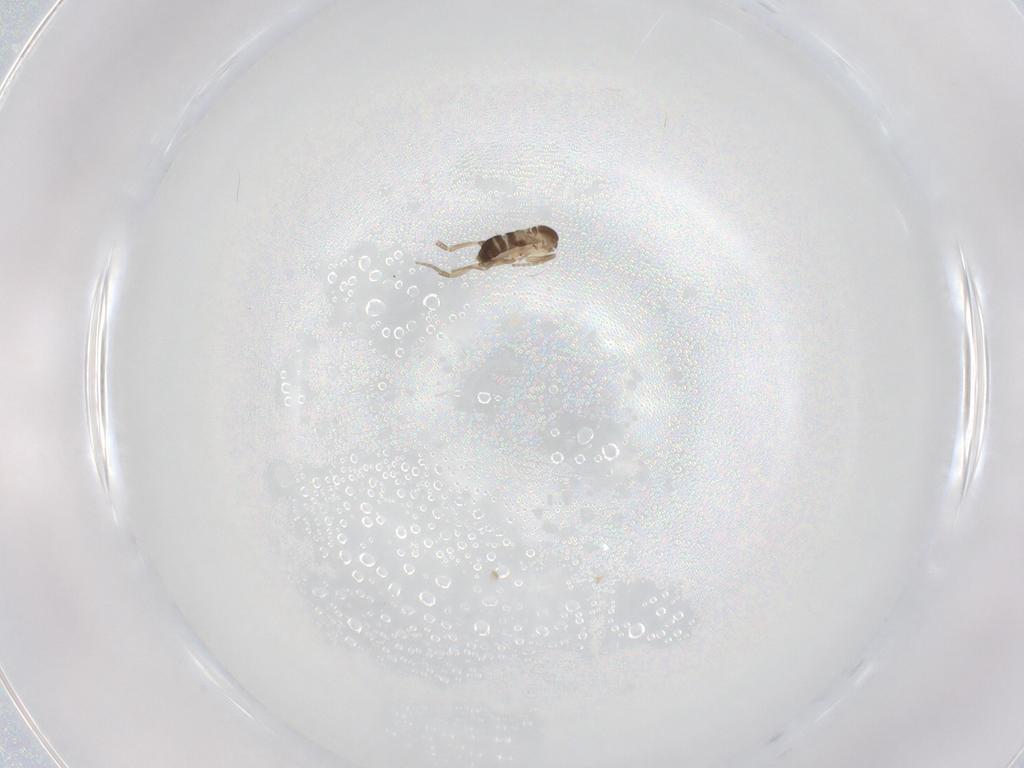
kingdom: Animalia
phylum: Arthropoda
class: Insecta
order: Diptera
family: Phoridae
